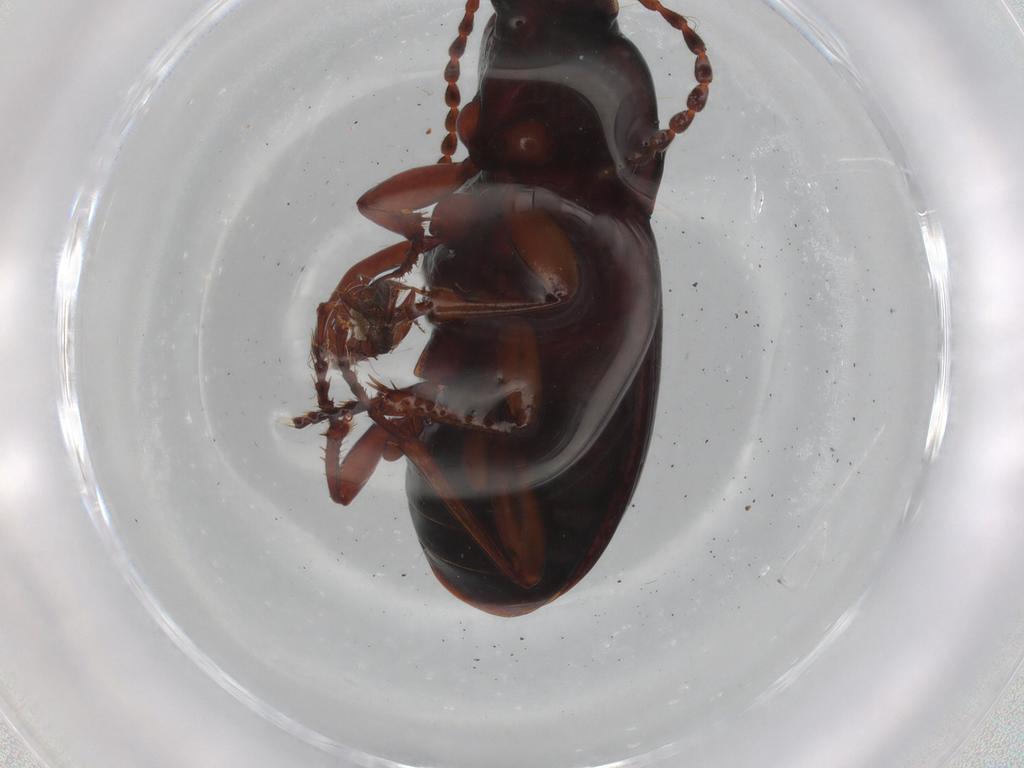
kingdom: Animalia
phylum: Arthropoda
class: Insecta
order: Coleoptera
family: Carabidae
